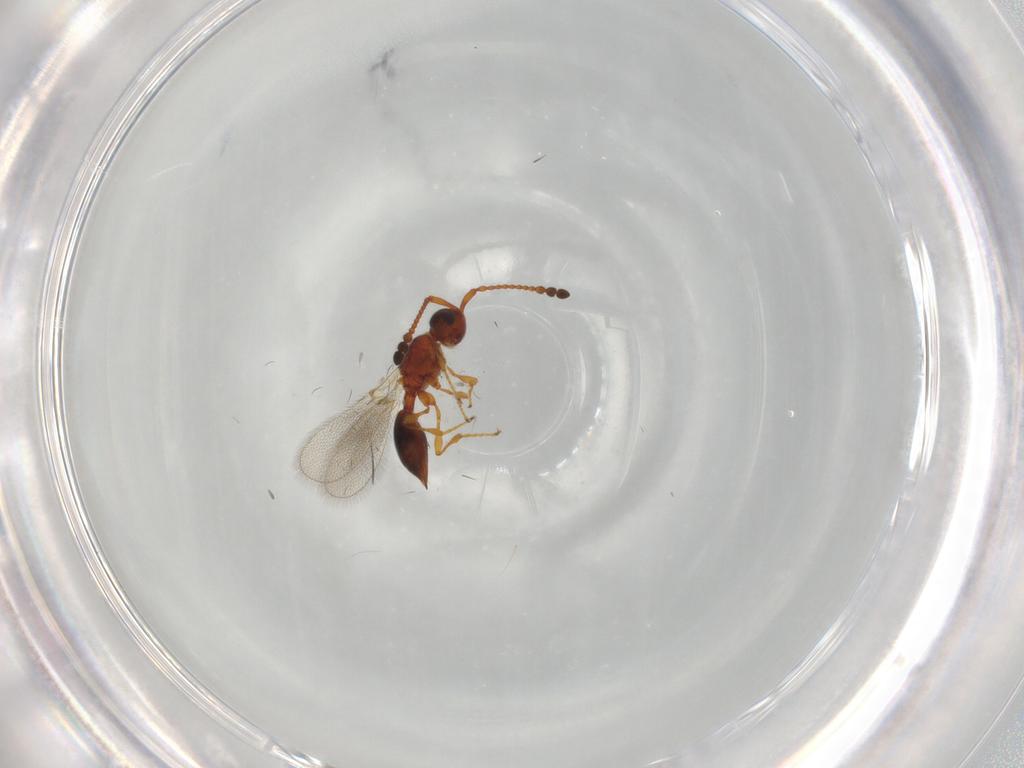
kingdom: Animalia
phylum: Arthropoda
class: Insecta
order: Hymenoptera
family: Diapriidae
